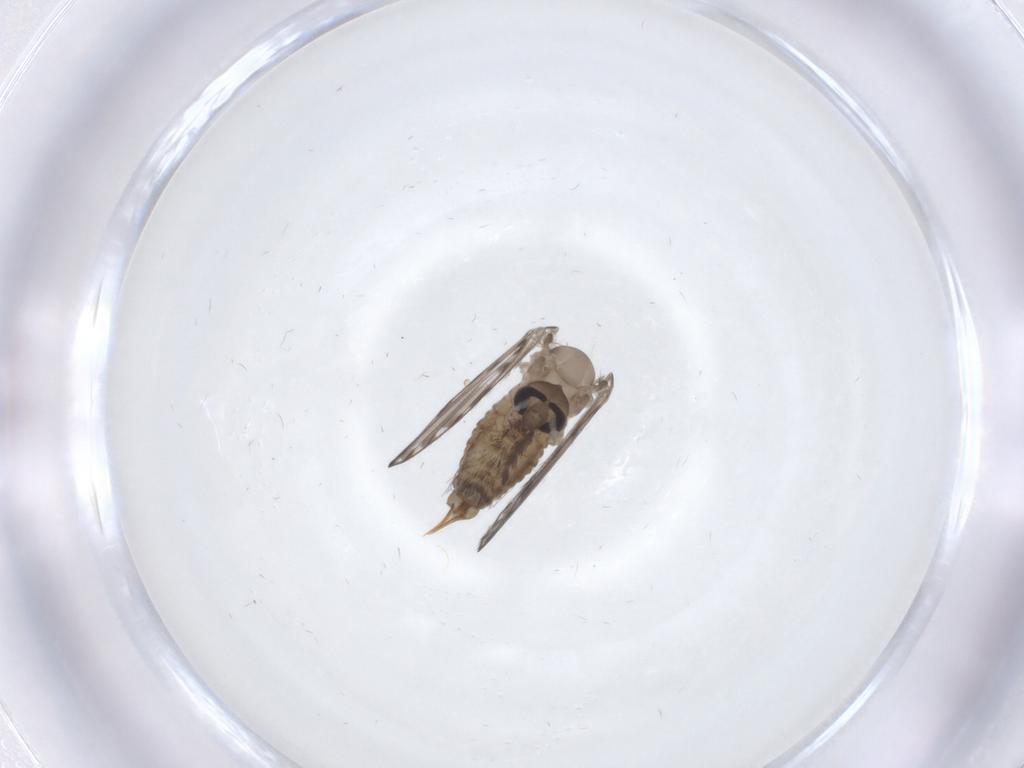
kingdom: Animalia
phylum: Arthropoda
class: Insecta
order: Diptera
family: Psychodidae
